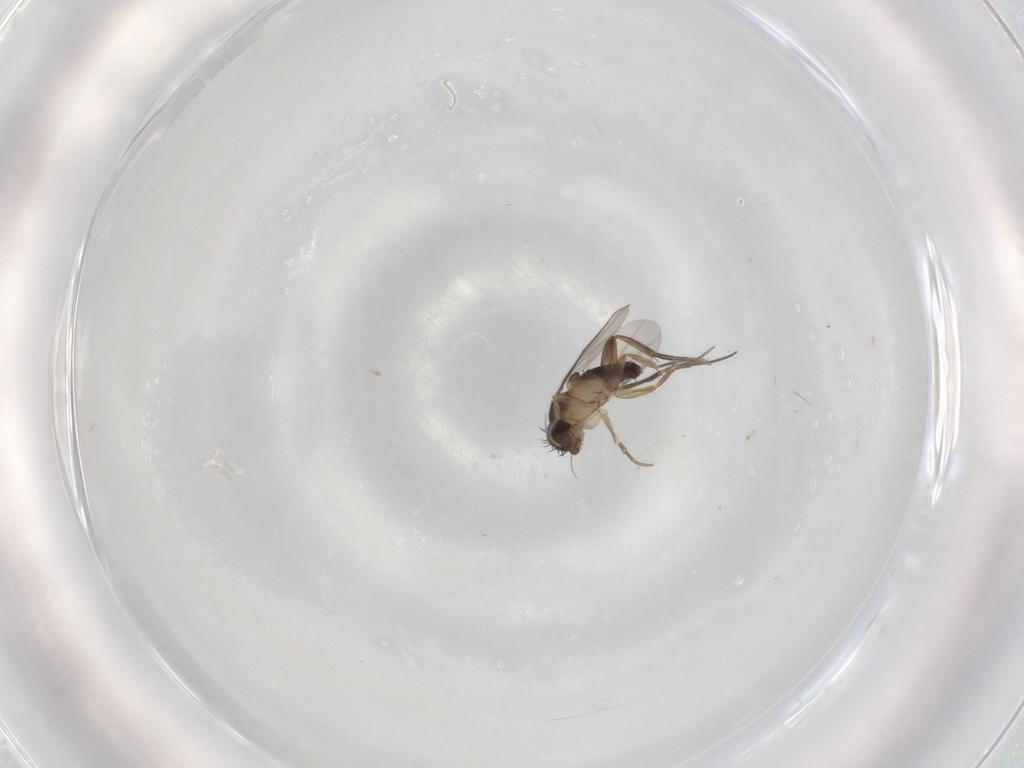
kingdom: Animalia
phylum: Arthropoda
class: Insecta
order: Diptera
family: Phoridae
